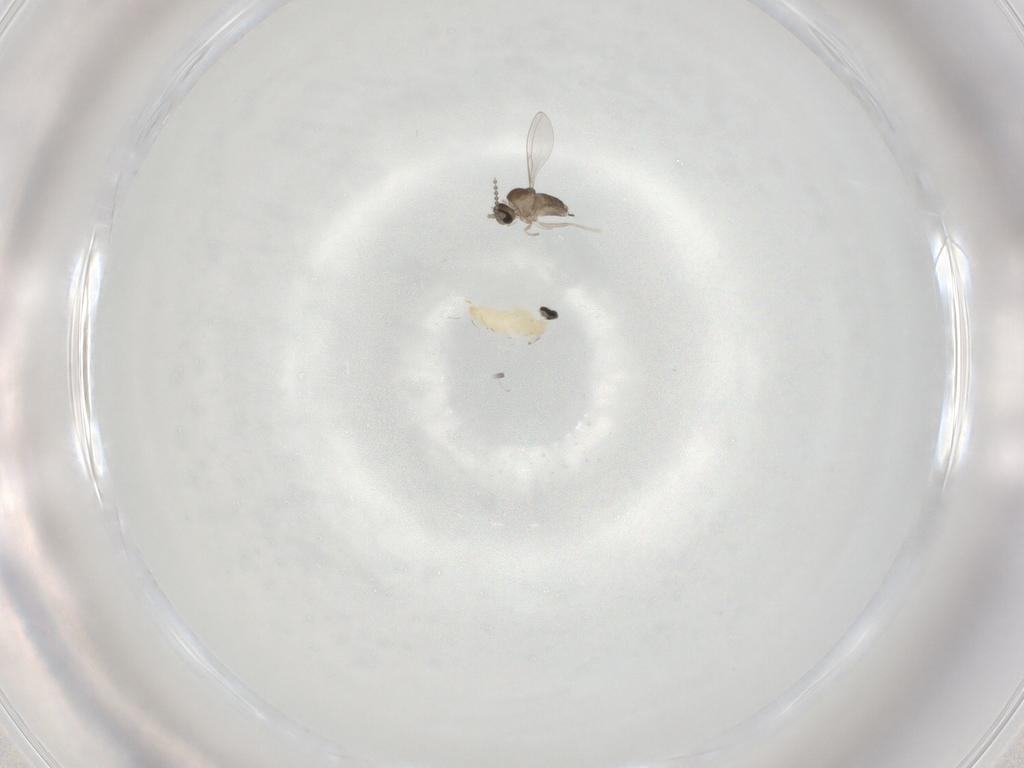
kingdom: Animalia
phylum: Arthropoda
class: Insecta
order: Diptera
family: Cecidomyiidae
